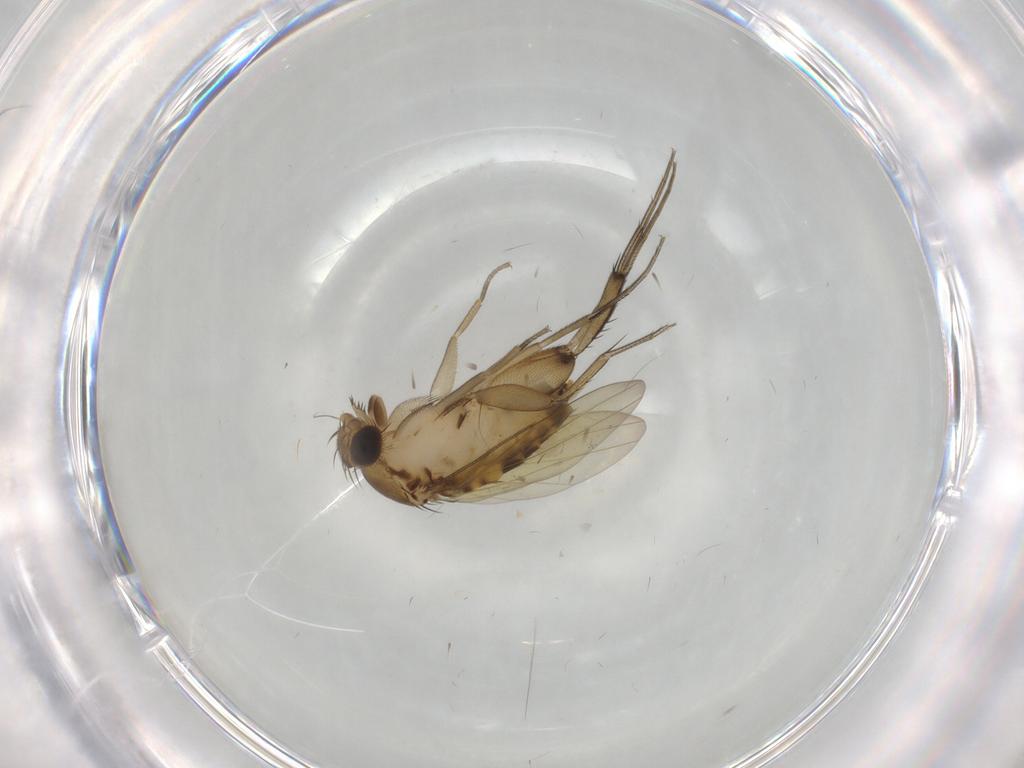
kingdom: Animalia
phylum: Arthropoda
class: Insecta
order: Diptera
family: Phoridae
